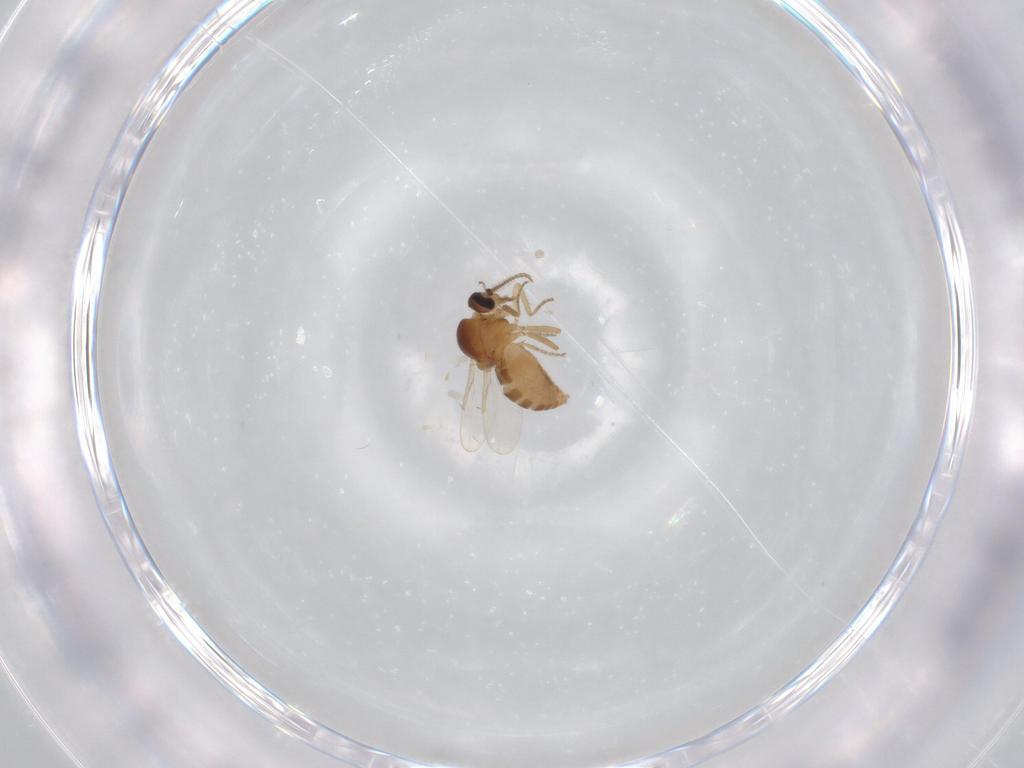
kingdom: Animalia
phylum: Arthropoda
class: Insecta
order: Diptera
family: Ceratopogonidae
